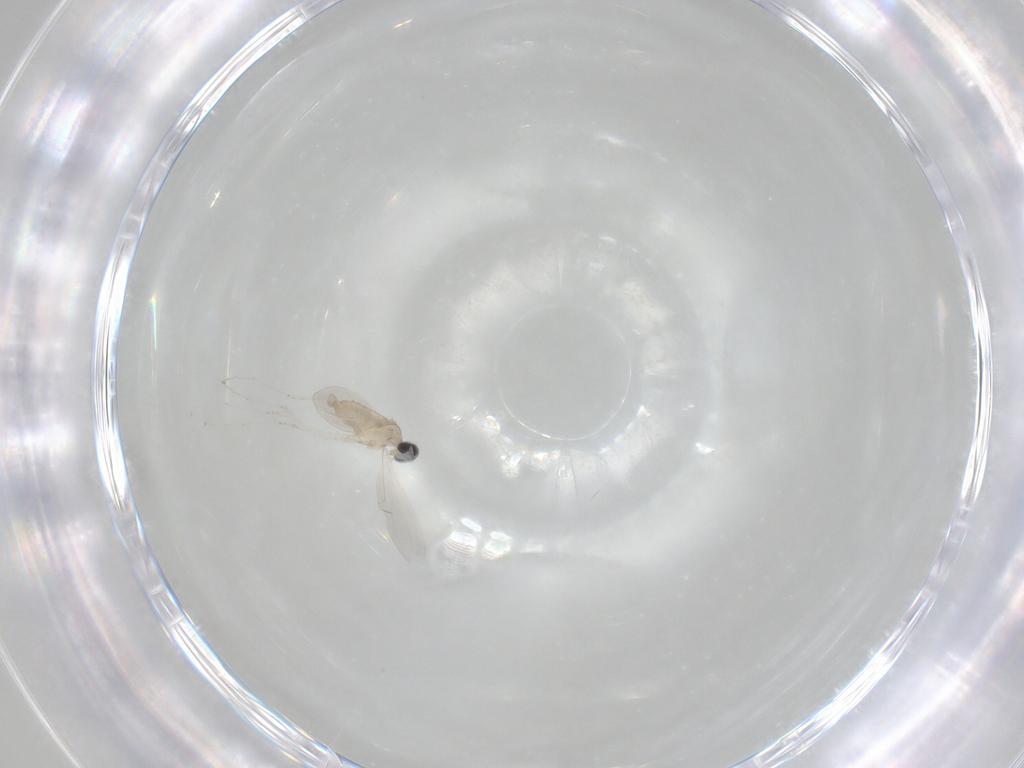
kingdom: Animalia
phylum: Arthropoda
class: Insecta
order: Diptera
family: Cecidomyiidae
